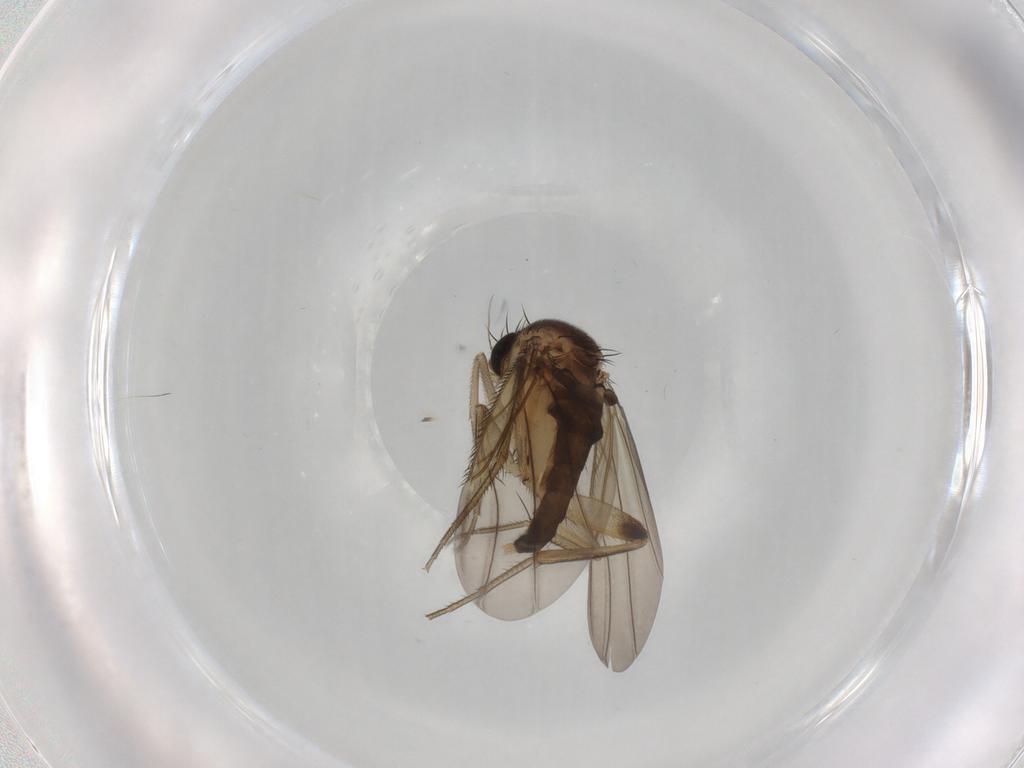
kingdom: Animalia
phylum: Arthropoda
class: Insecta
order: Diptera
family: Phoridae
